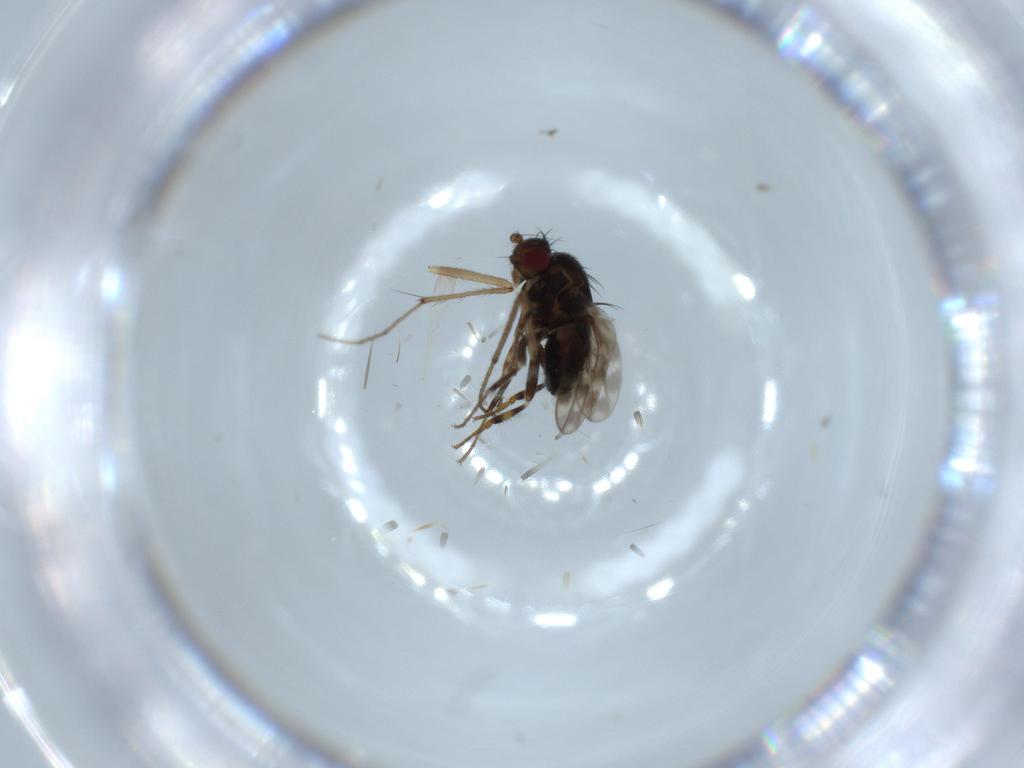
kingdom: Animalia
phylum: Arthropoda
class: Insecta
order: Diptera
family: Sphaeroceridae
